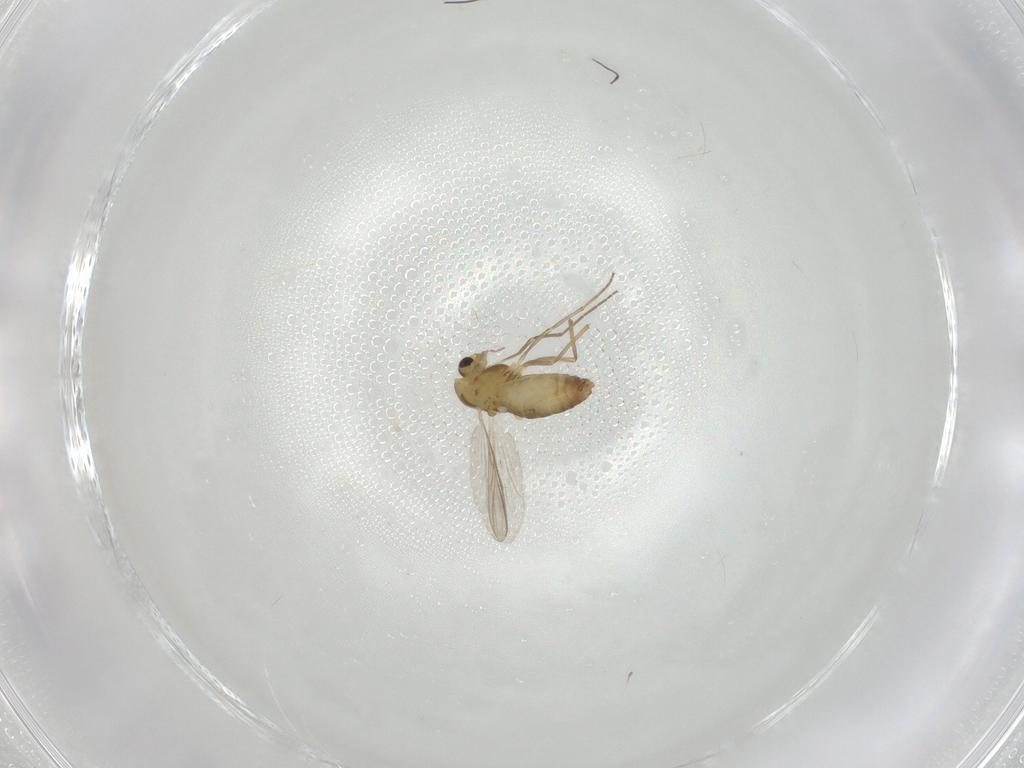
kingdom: Animalia
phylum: Arthropoda
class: Insecta
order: Diptera
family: Chironomidae
